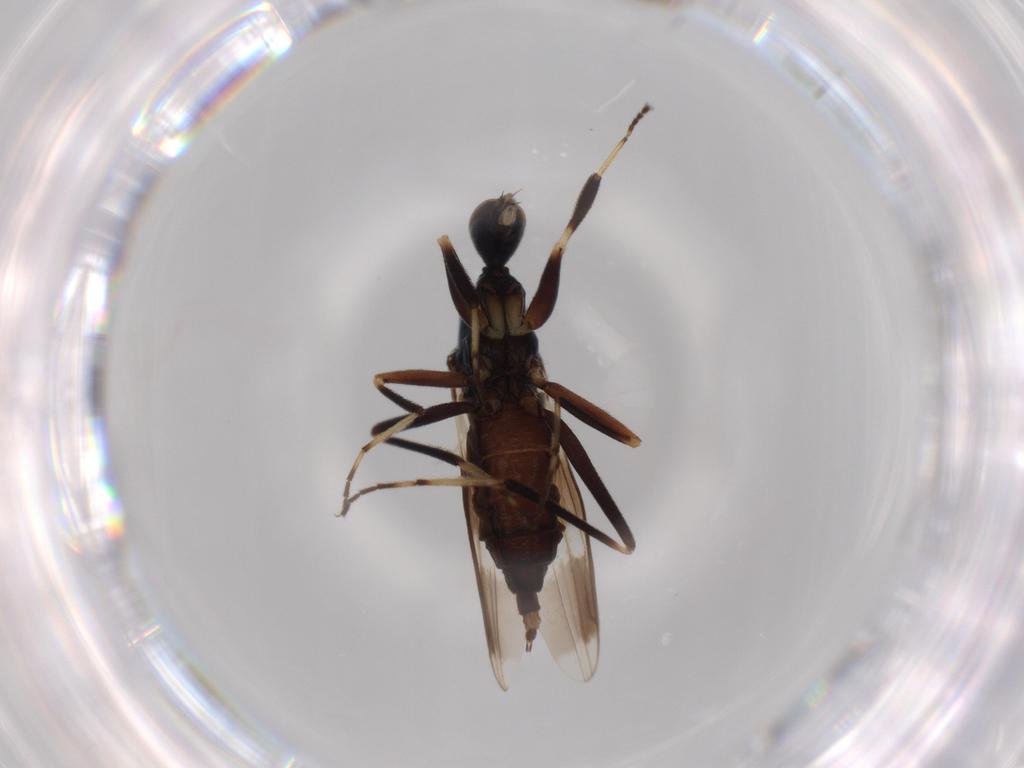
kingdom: Animalia
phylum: Arthropoda
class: Insecta
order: Diptera
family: Hybotidae
